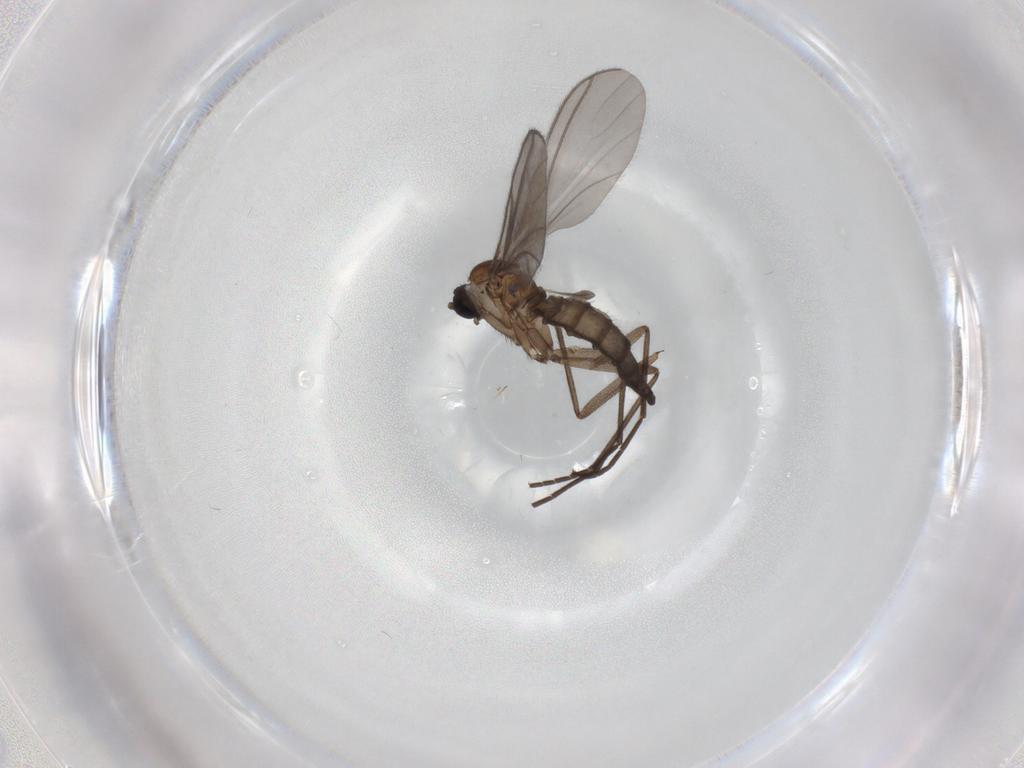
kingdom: Animalia
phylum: Arthropoda
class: Insecta
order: Diptera
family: Sciaridae
